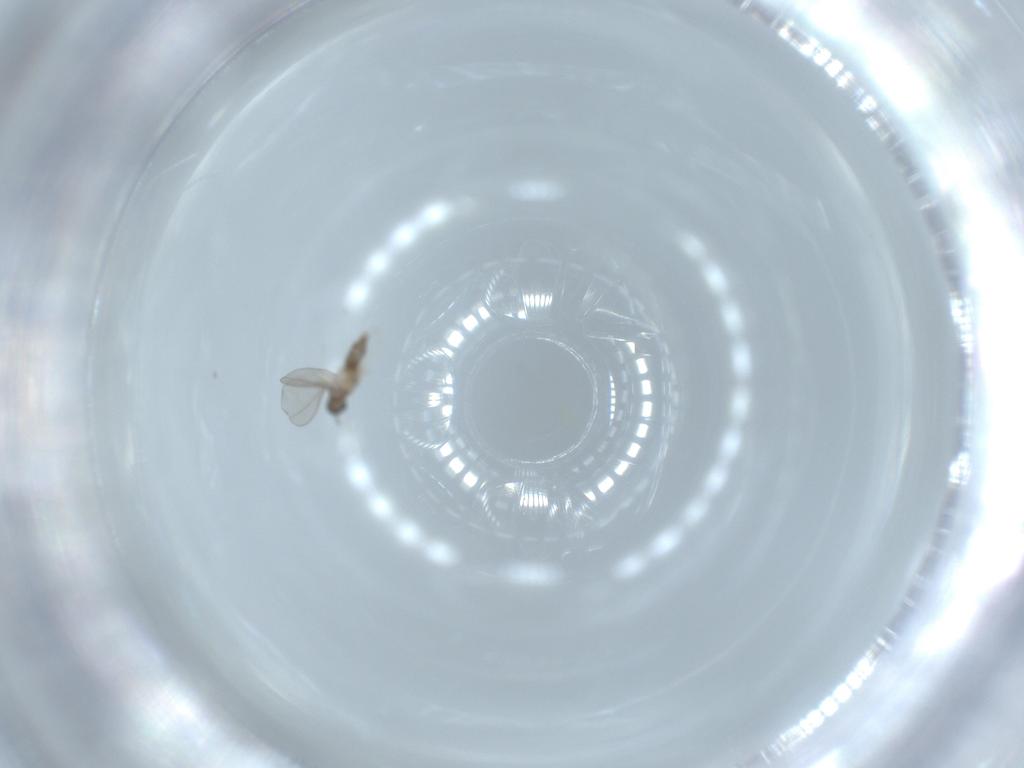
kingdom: Animalia
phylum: Arthropoda
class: Insecta
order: Diptera
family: Cecidomyiidae
